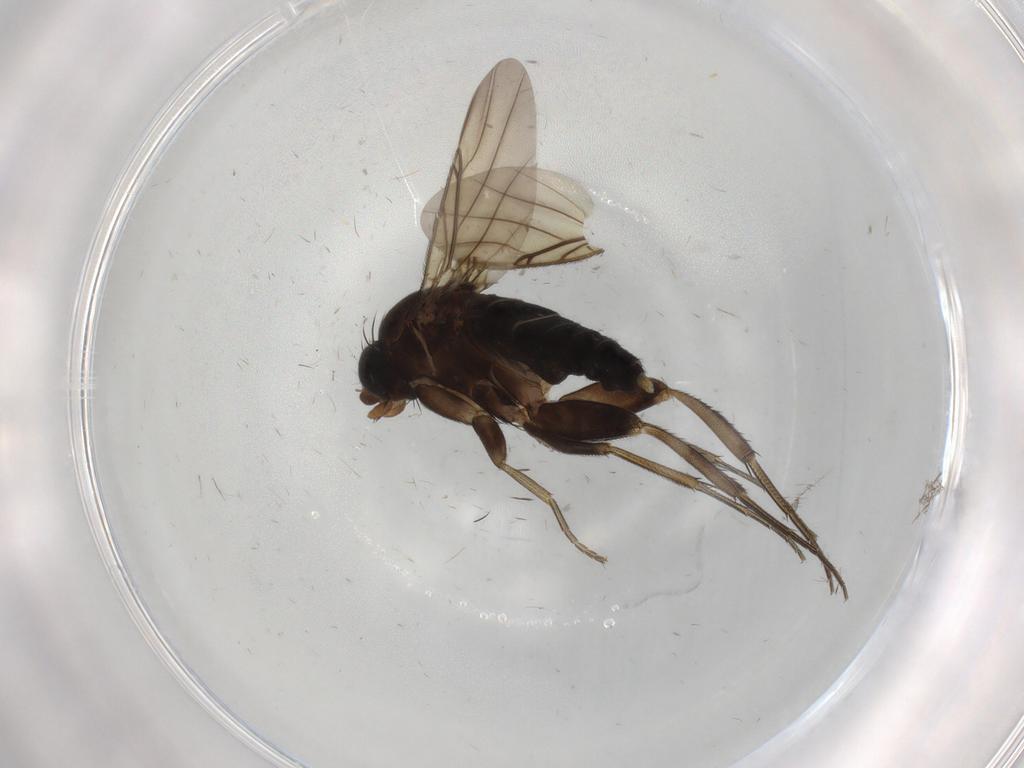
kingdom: Animalia
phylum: Arthropoda
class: Insecta
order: Diptera
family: Phoridae
